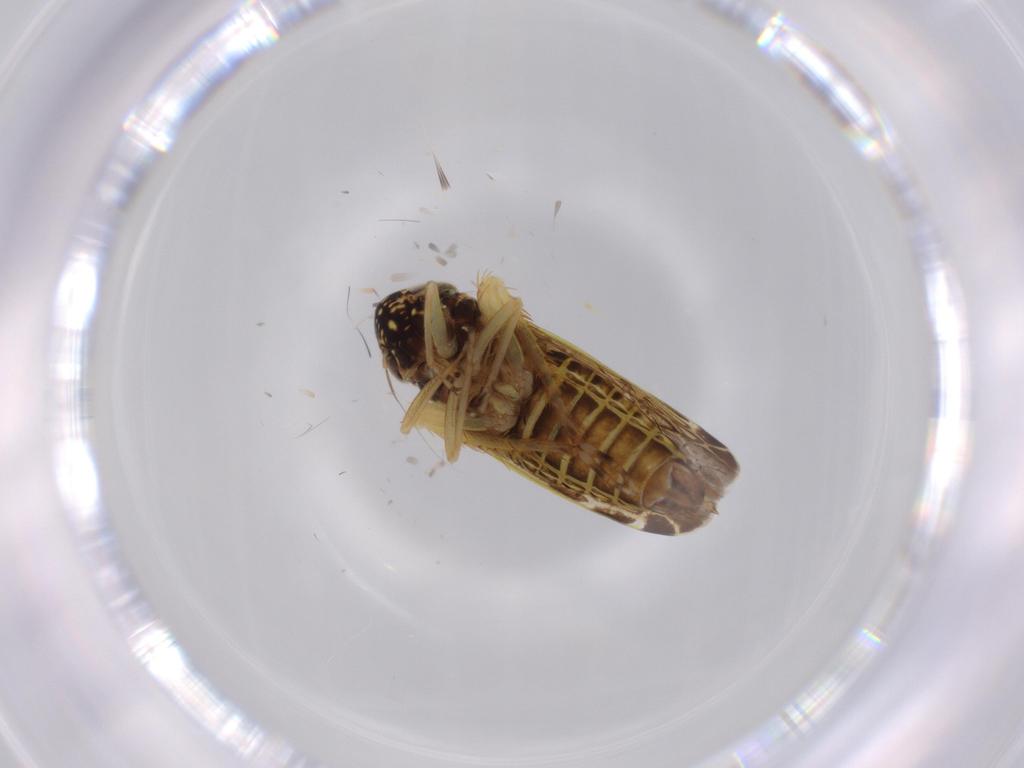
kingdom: Animalia
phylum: Arthropoda
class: Insecta
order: Hemiptera
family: Cicadellidae
